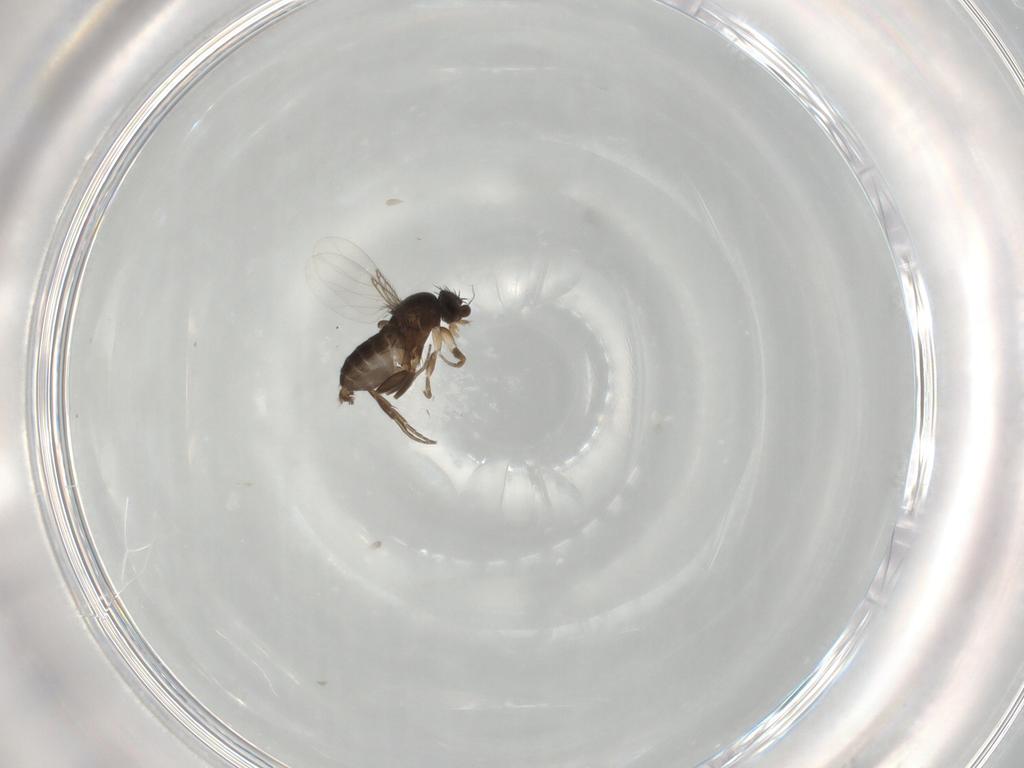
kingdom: Animalia
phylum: Arthropoda
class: Insecta
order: Diptera
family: Phoridae
